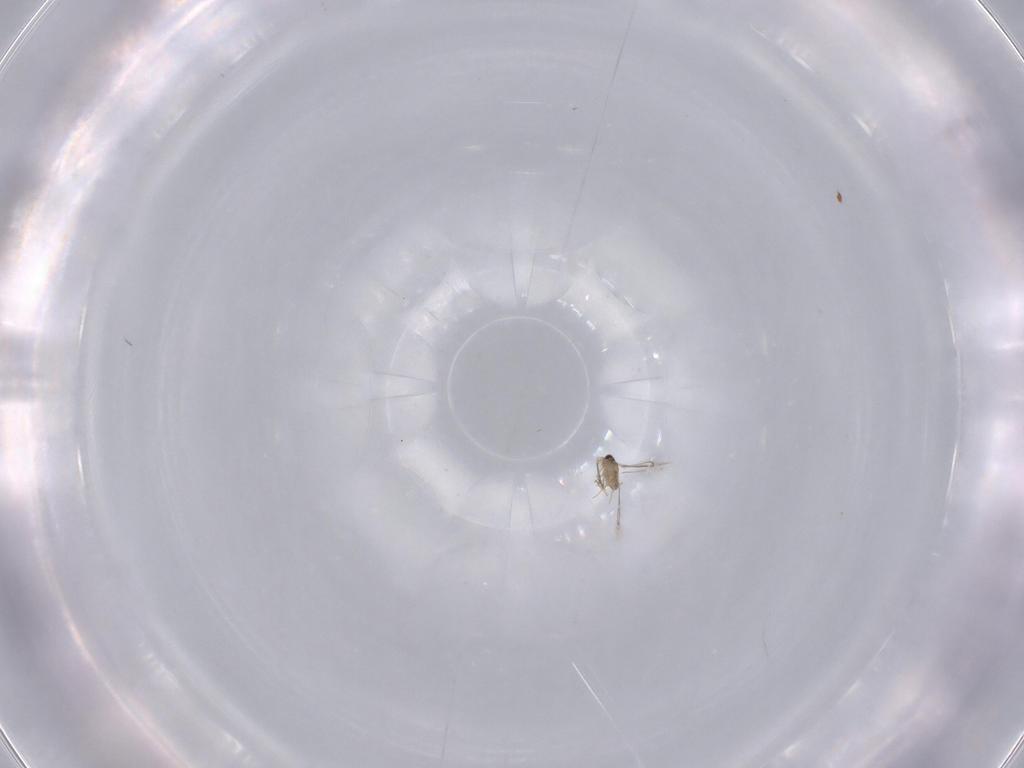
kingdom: Animalia
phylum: Arthropoda
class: Insecta
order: Hymenoptera
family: Mymaridae
